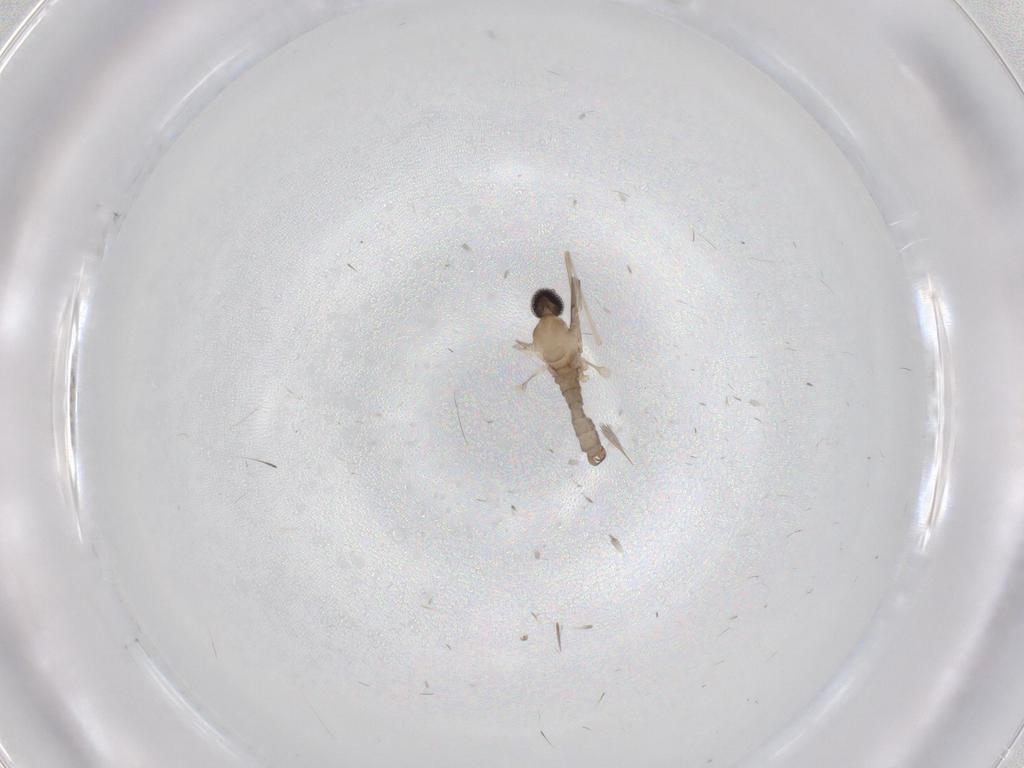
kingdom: Animalia
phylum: Arthropoda
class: Insecta
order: Diptera
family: Cecidomyiidae
